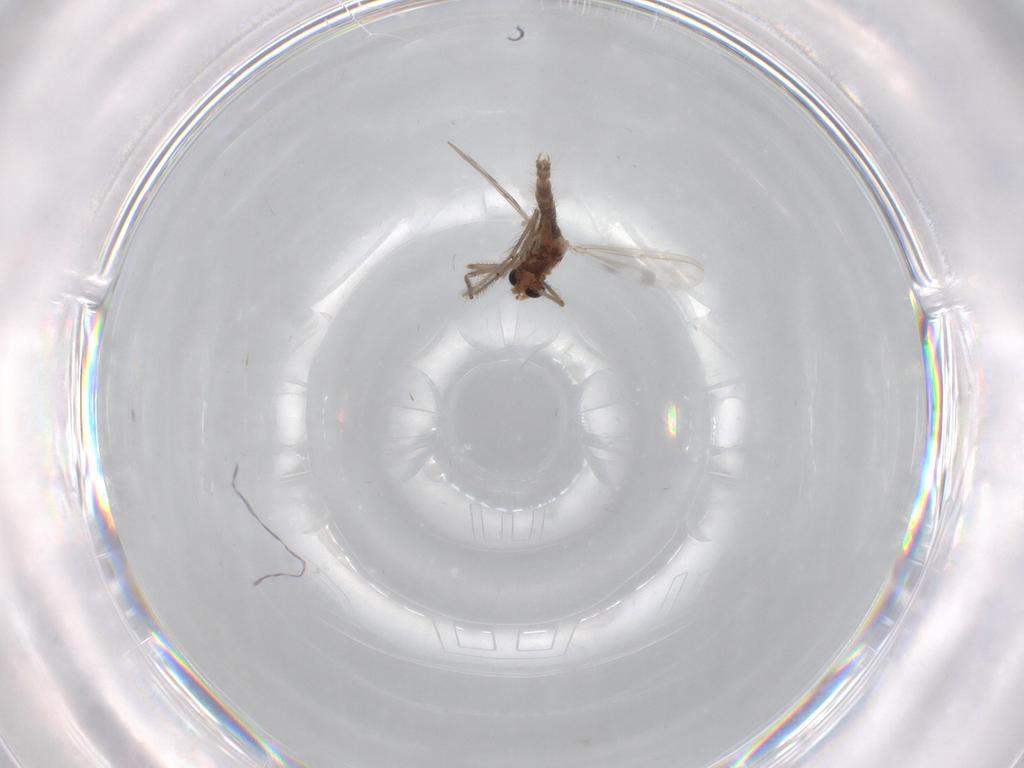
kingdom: Animalia
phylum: Arthropoda
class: Insecta
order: Diptera
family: Chironomidae
